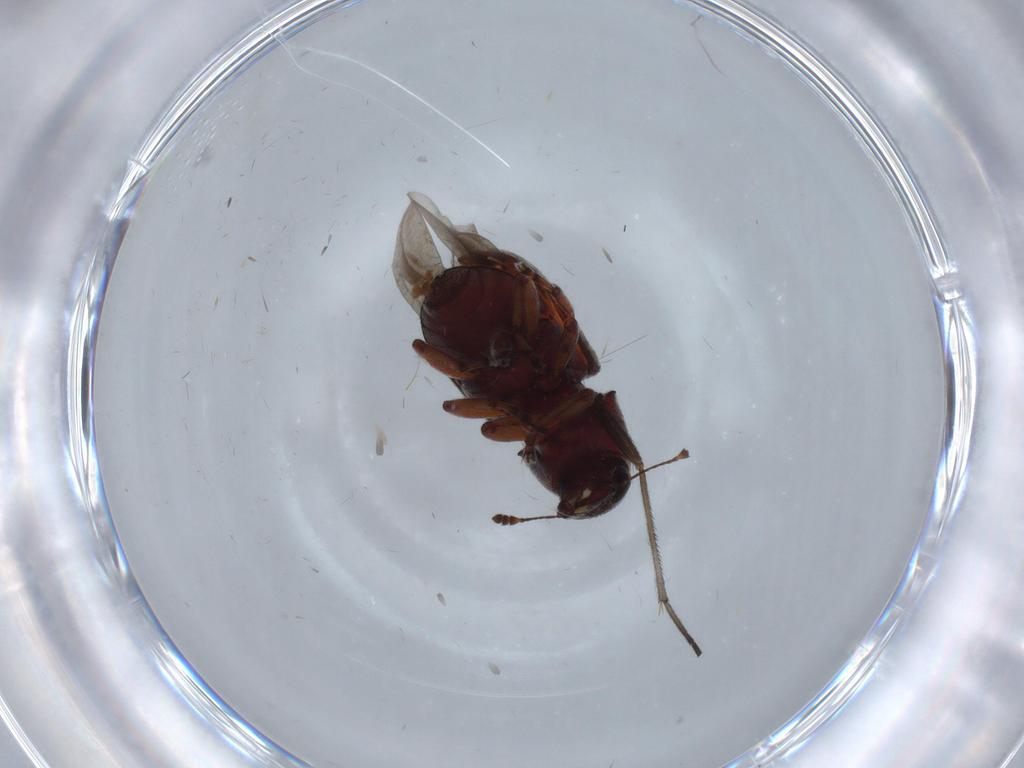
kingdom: Animalia
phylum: Arthropoda
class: Insecta
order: Coleoptera
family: Anthribidae
